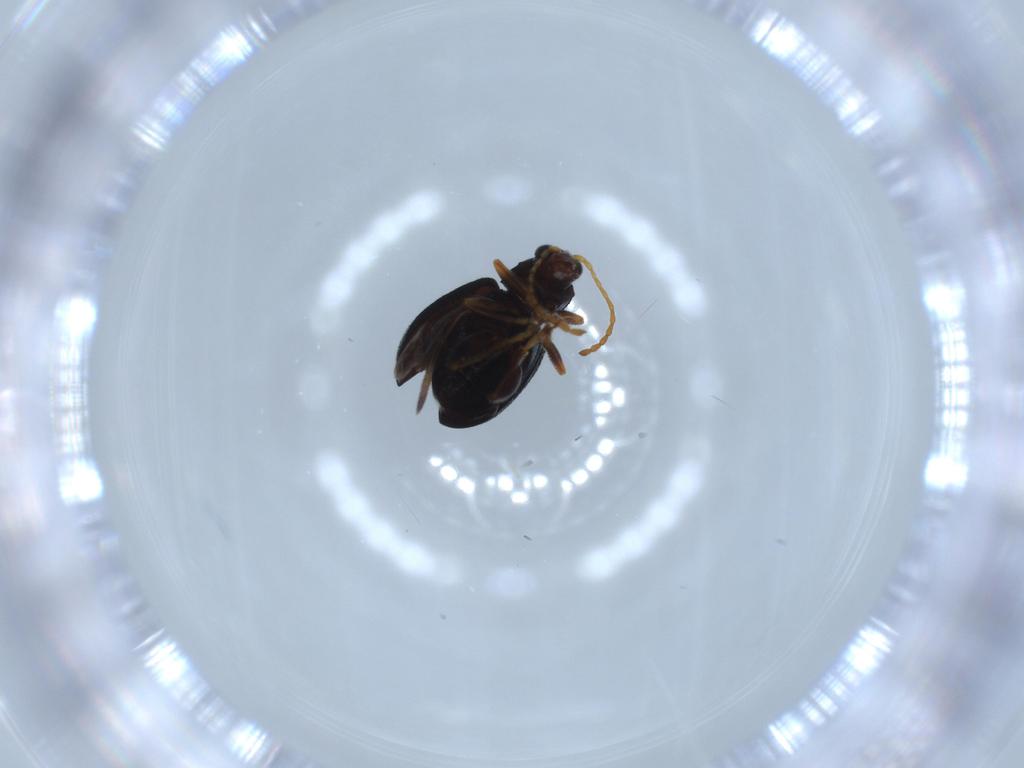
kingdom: Animalia
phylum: Arthropoda
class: Insecta
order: Coleoptera
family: Chrysomelidae
